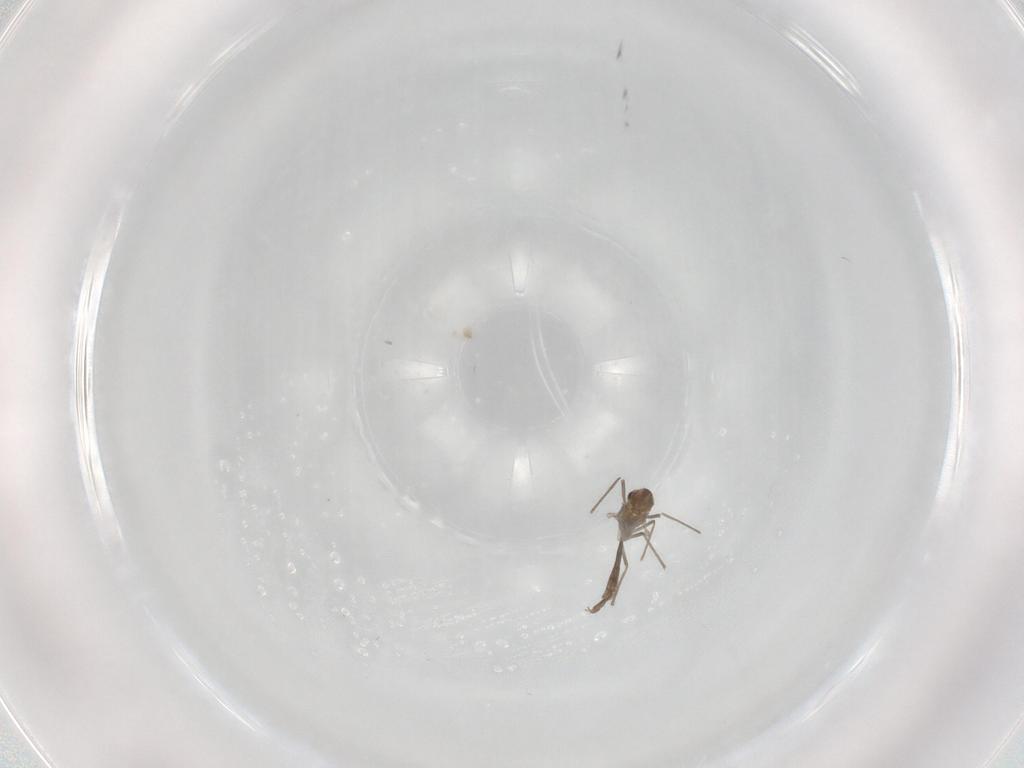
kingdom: Animalia
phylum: Arthropoda
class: Insecta
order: Diptera
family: Chironomidae
